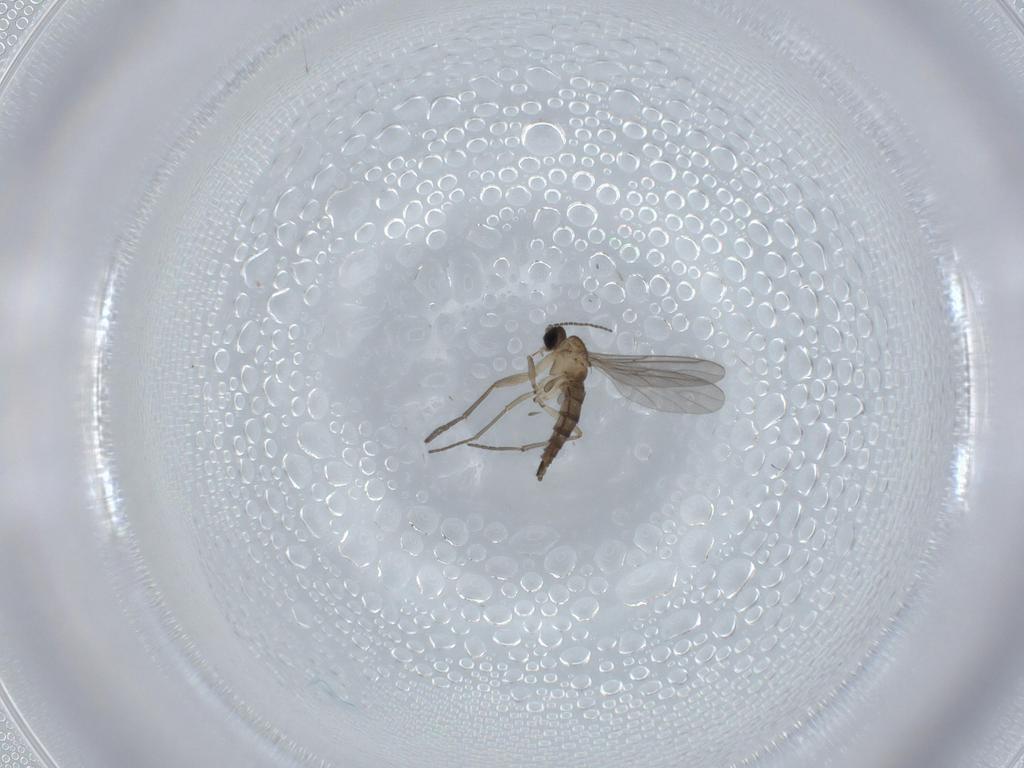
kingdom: Animalia
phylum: Arthropoda
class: Insecta
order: Diptera
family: Sciaridae
